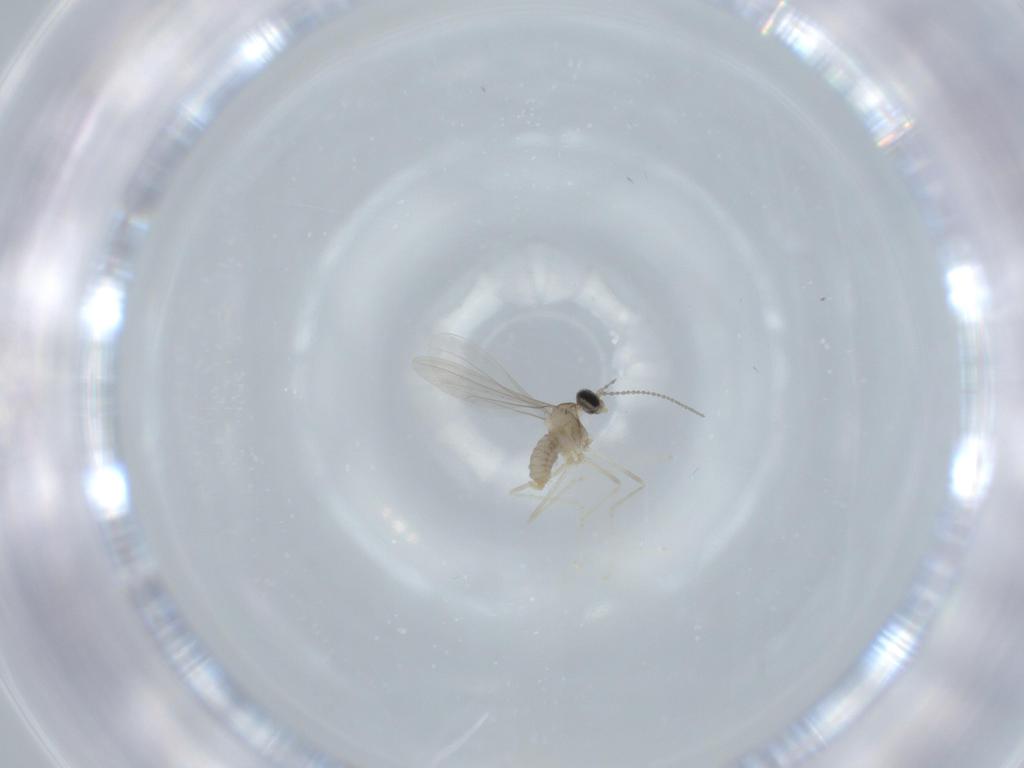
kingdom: Animalia
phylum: Arthropoda
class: Insecta
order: Diptera
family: Cecidomyiidae
